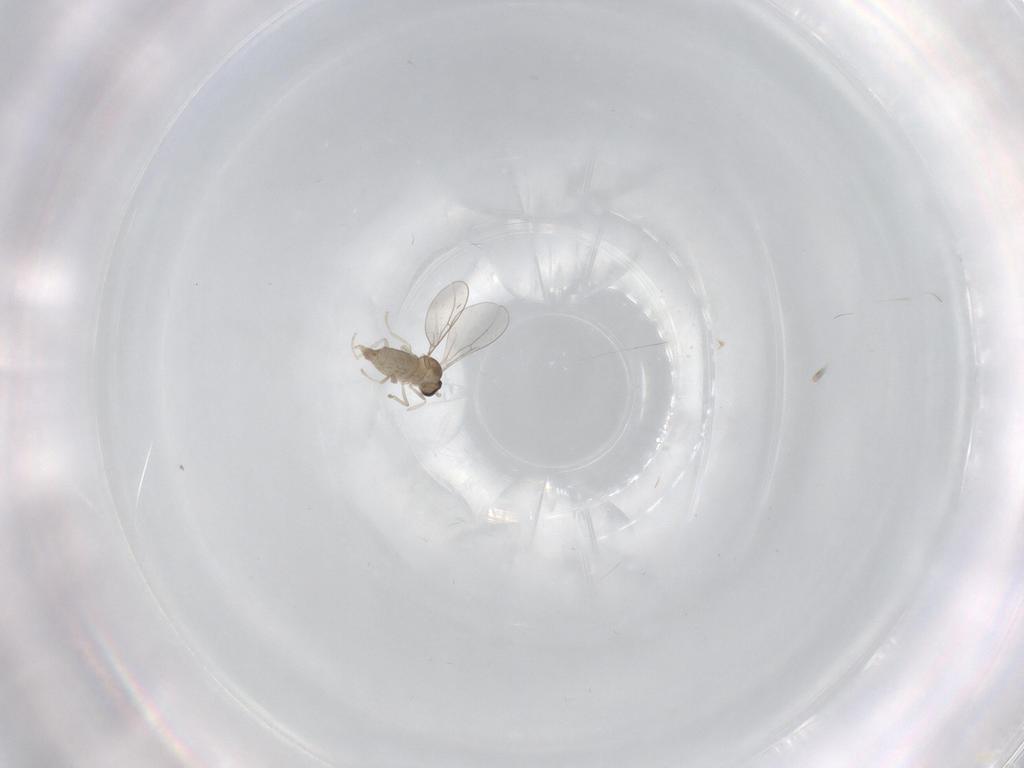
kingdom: Animalia
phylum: Arthropoda
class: Insecta
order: Diptera
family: Cecidomyiidae
